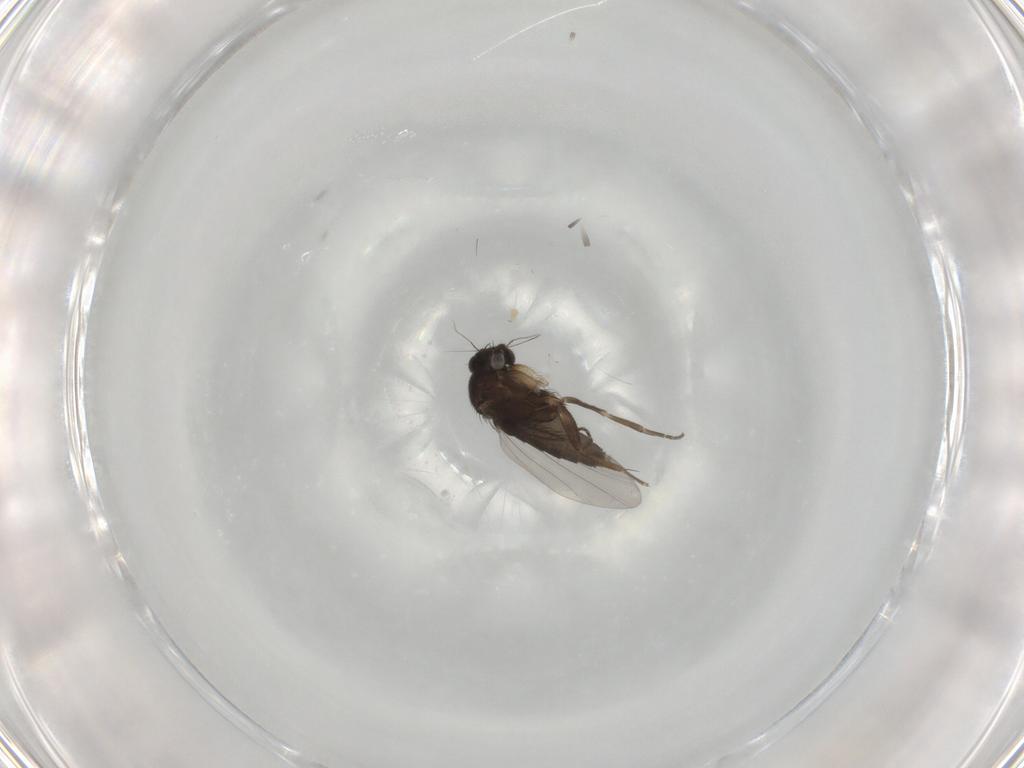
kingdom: Animalia
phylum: Arthropoda
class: Insecta
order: Diptera
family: Phoridae
